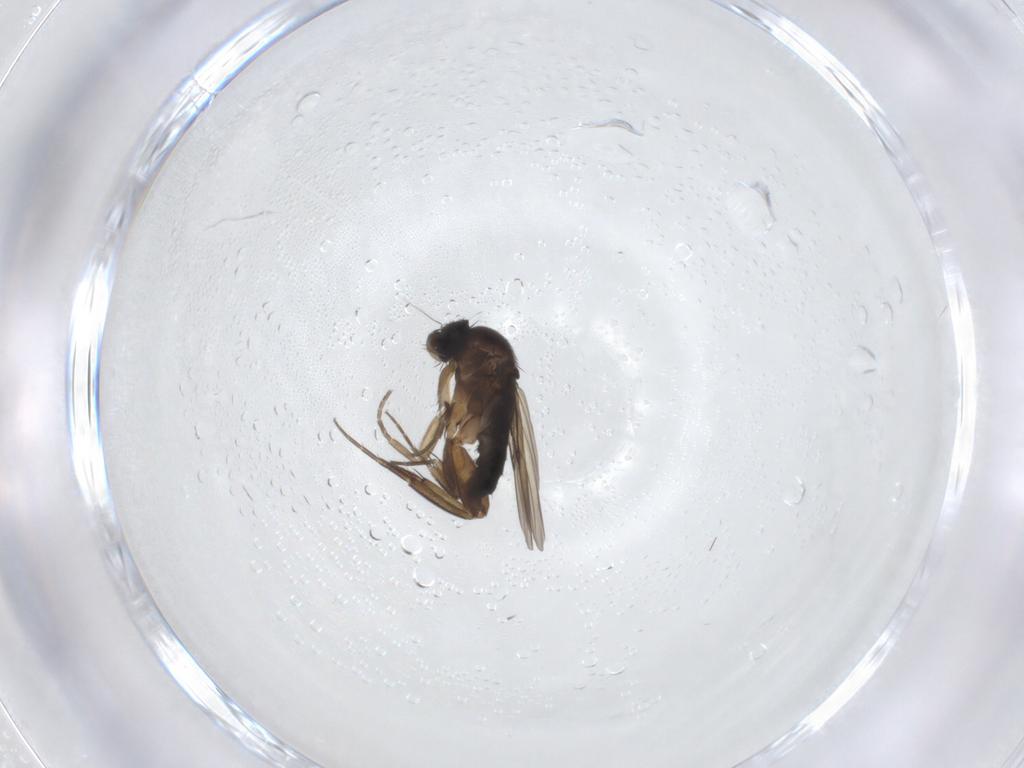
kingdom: Animalia
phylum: Arthropoda
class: Insecta
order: Diptera
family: Phoridae
